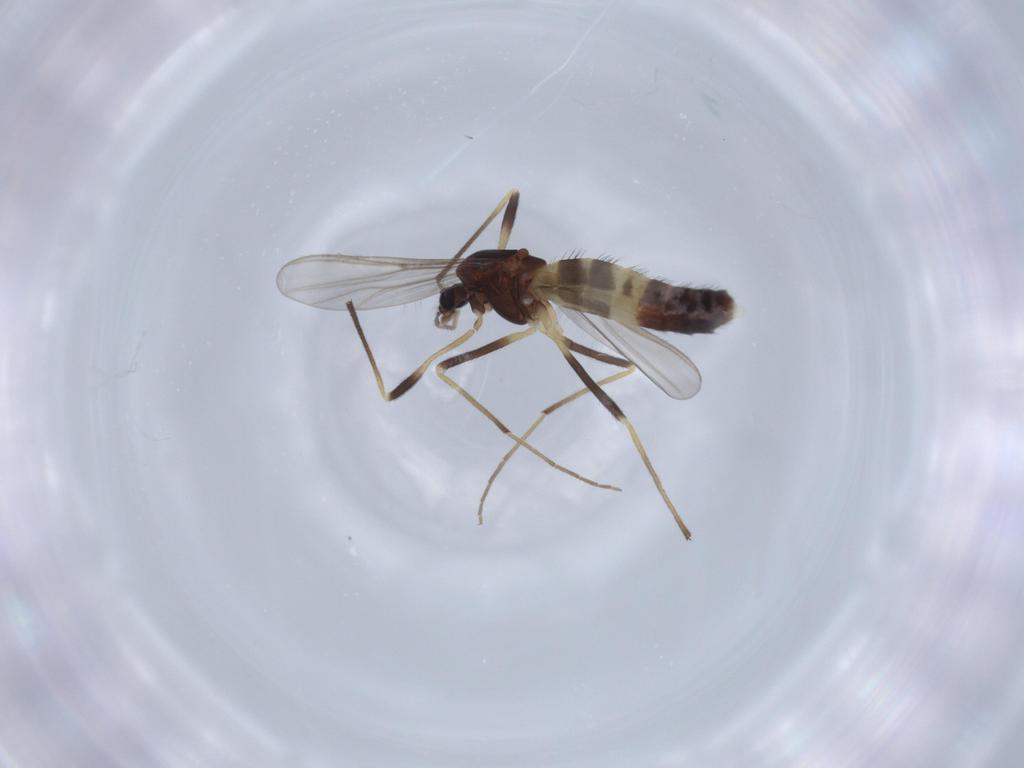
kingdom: Animalia
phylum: Arthropoda
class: Insecta
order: Diptera
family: Chironomidae
